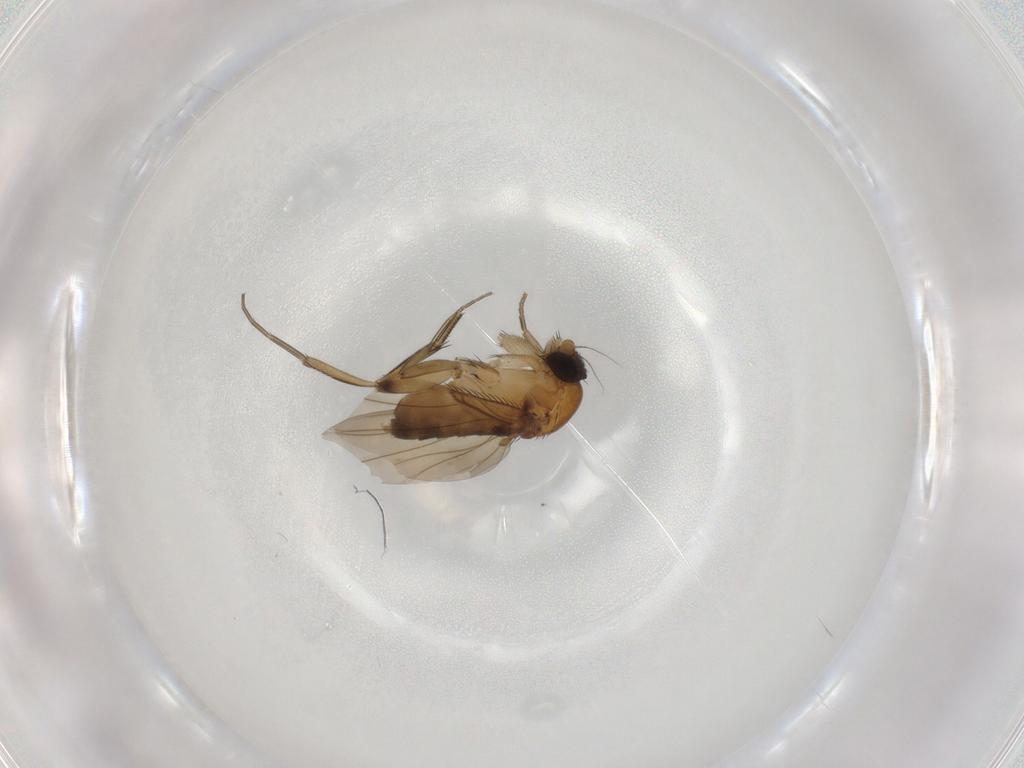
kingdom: Animalia
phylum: Arthropoda
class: Insecta
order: Diptera
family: Phoridae
